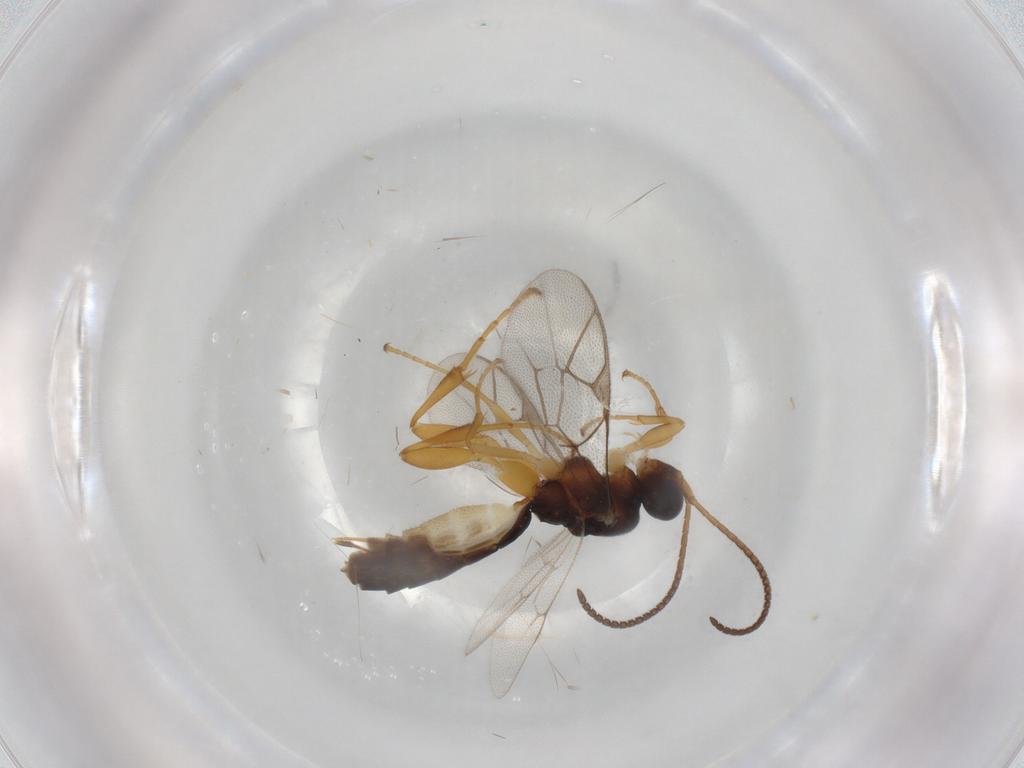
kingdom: Animalia
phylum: Arthropoda
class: Insecta
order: Hymenoptera
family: Ichneumonidae
